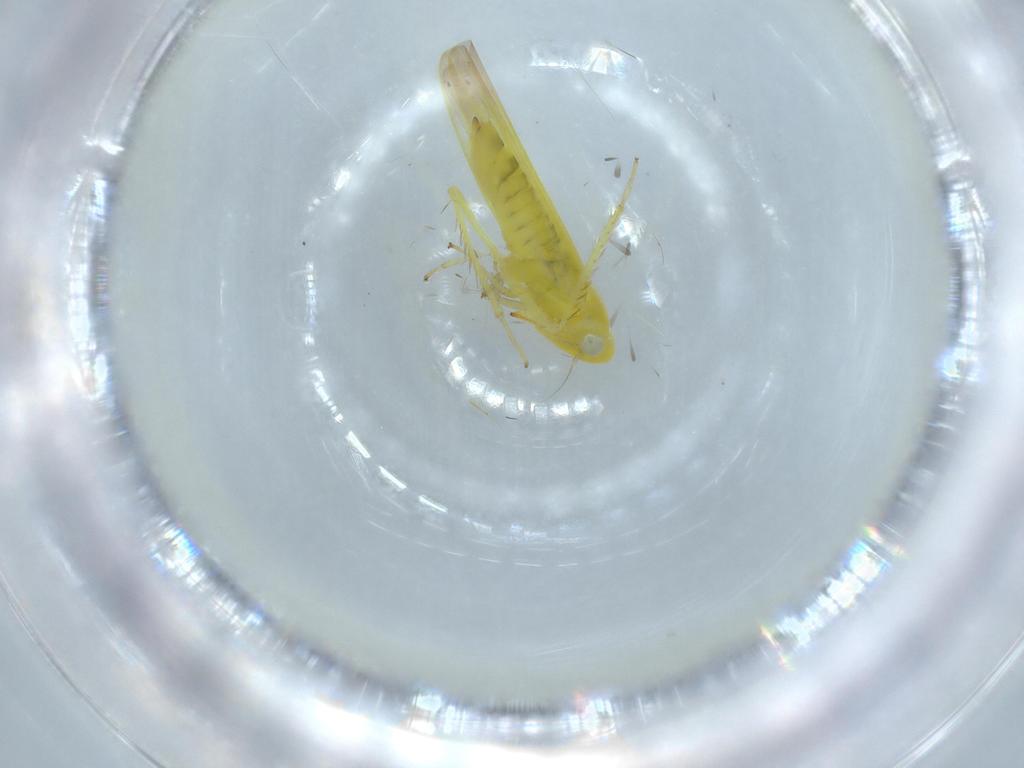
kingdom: Animalia
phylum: Arthropoda
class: Insecta
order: Hemiptera
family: Cicadellidae
